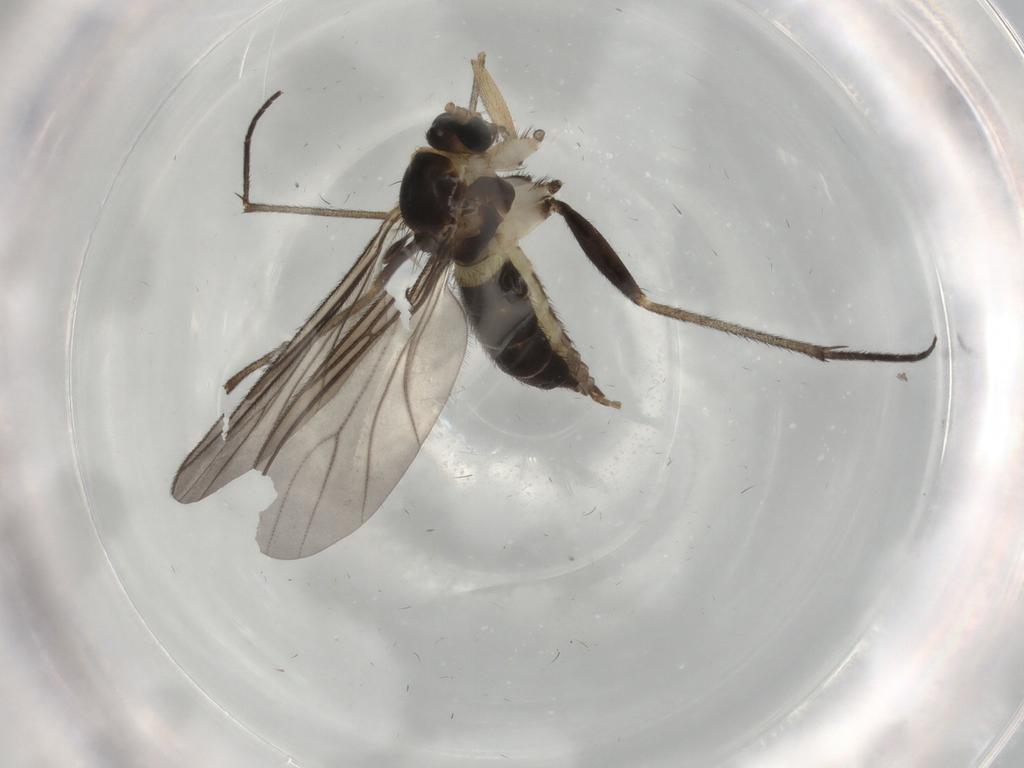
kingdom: Animalia
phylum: Arthropoda
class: Insecta
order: Diptera
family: Sciaridae
